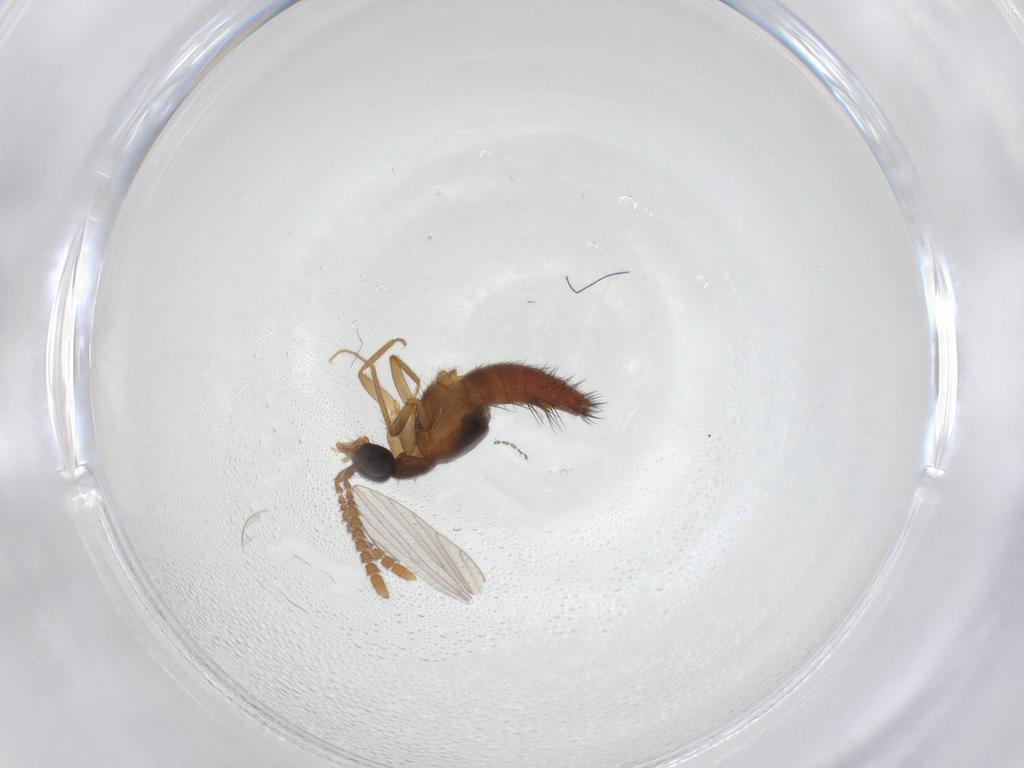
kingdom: Animalia
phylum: Arthropoda
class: Insecta
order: Coleoptera
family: Staphylinidae
